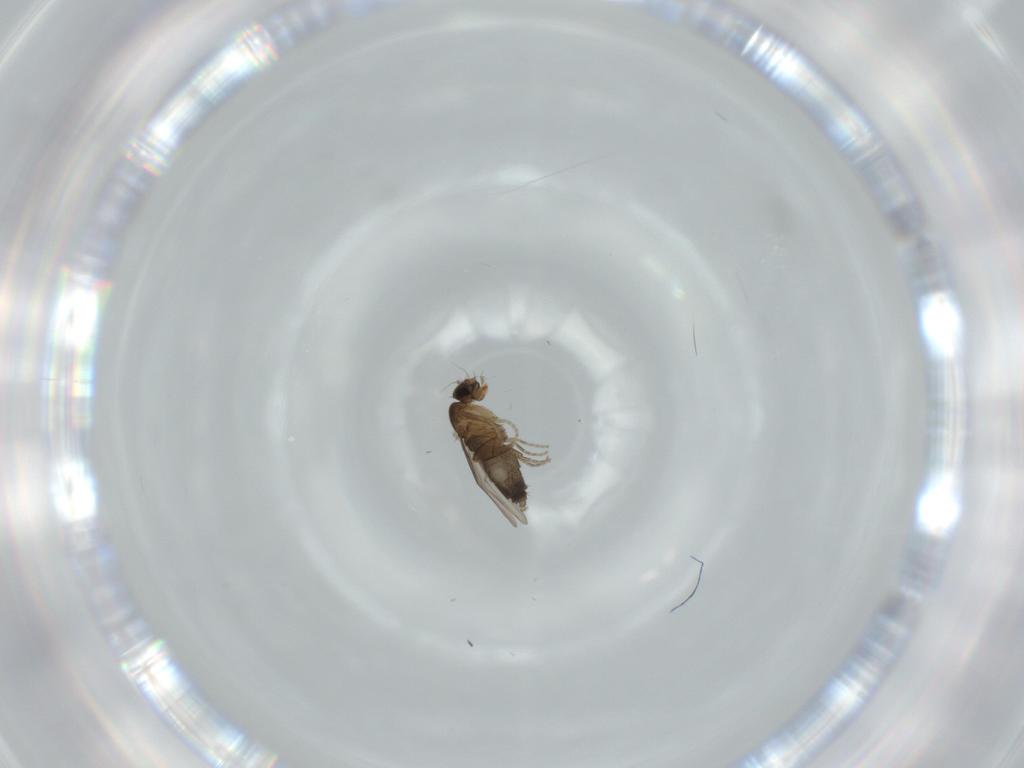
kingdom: Animalia
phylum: Arthropoda
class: Insecta
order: Diptera
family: Phoridae
